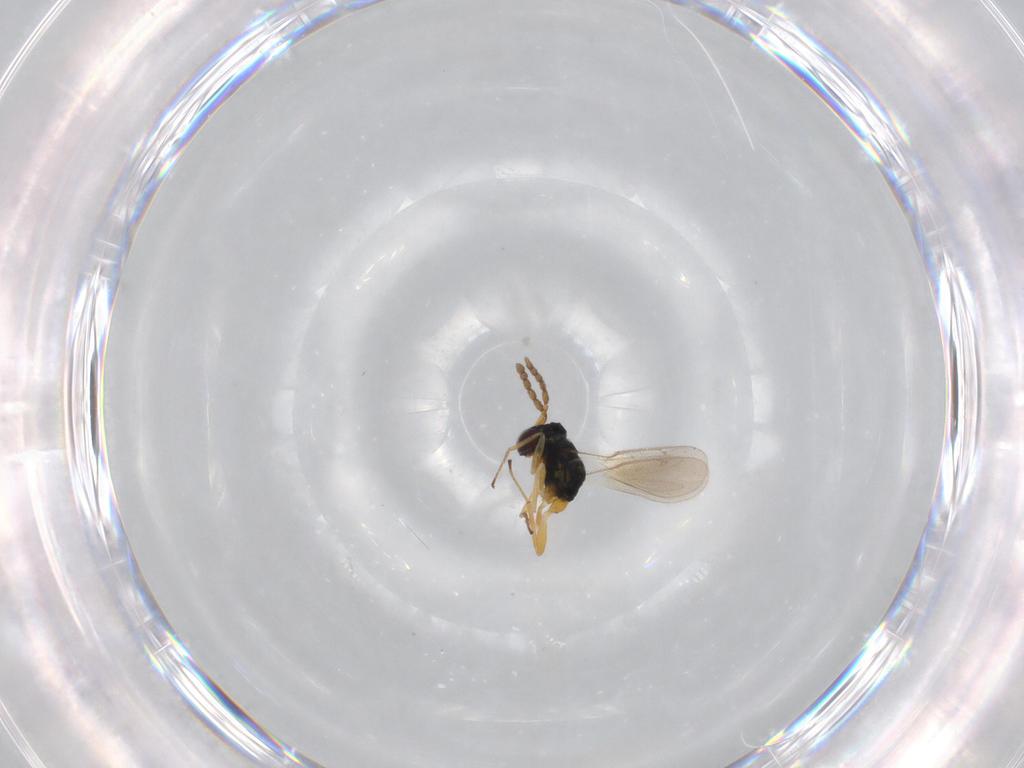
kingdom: Animalia
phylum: Arthropoda
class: Insecta
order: Hymenoptera
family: Eulophidae
